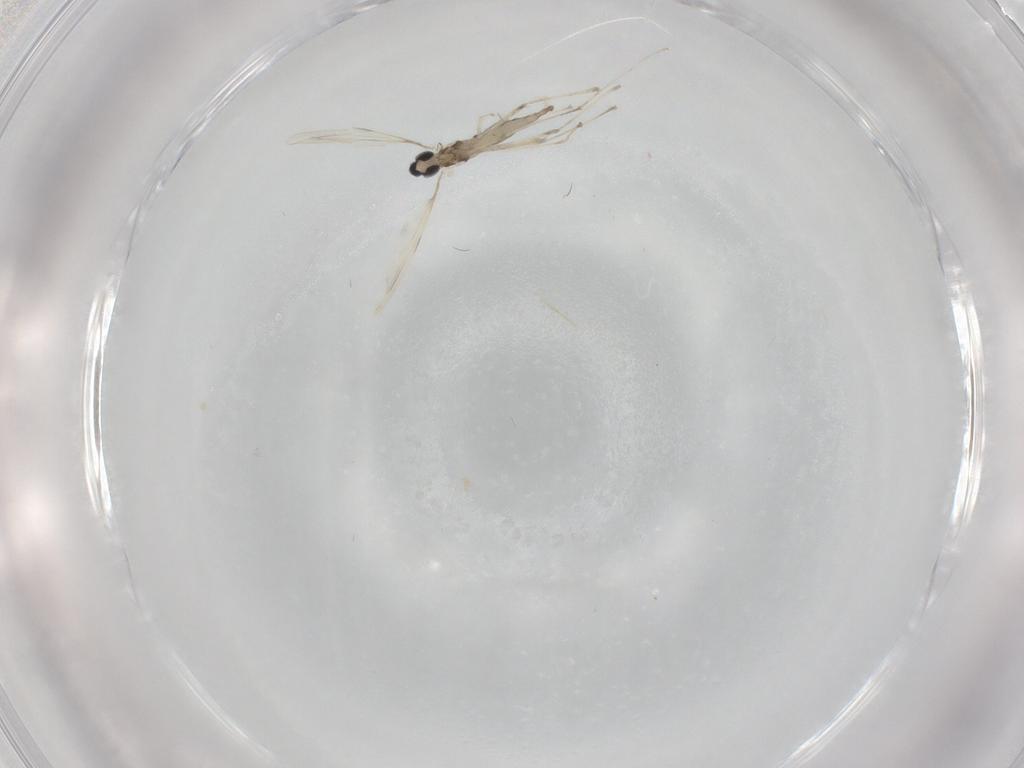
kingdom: Animalia
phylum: Arthropoda
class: Insecta
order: Diptera
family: Cecidomyiidae
